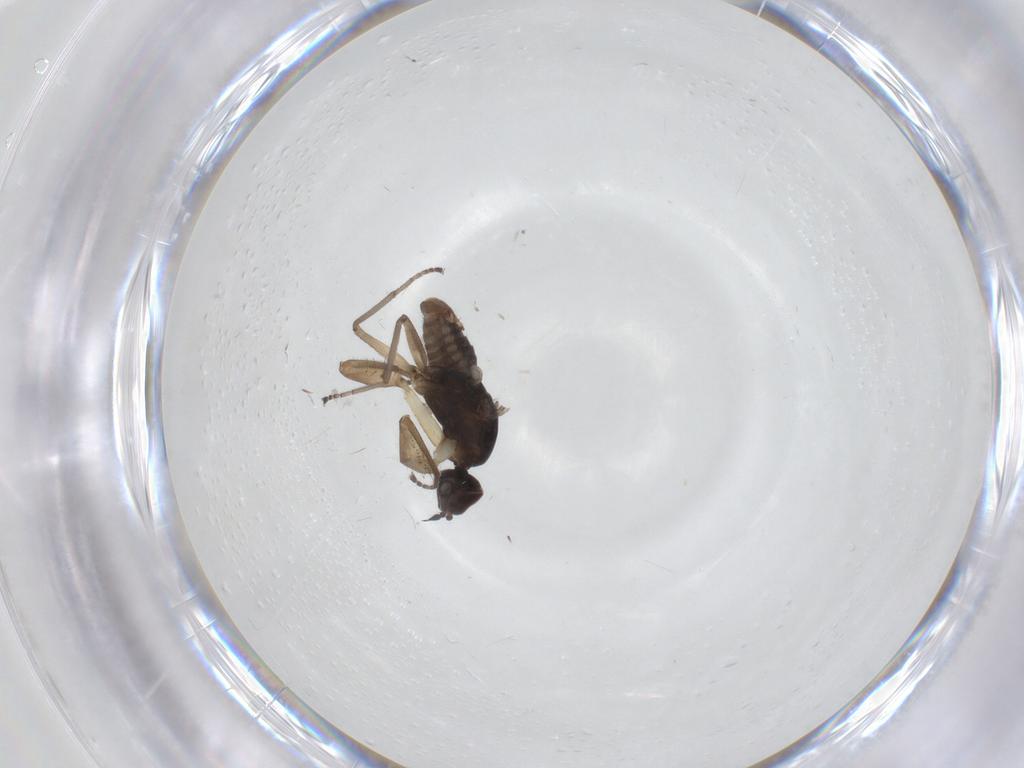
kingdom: Animalia
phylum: Arthropoda
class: Insecta
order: Diptera
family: Empididae
